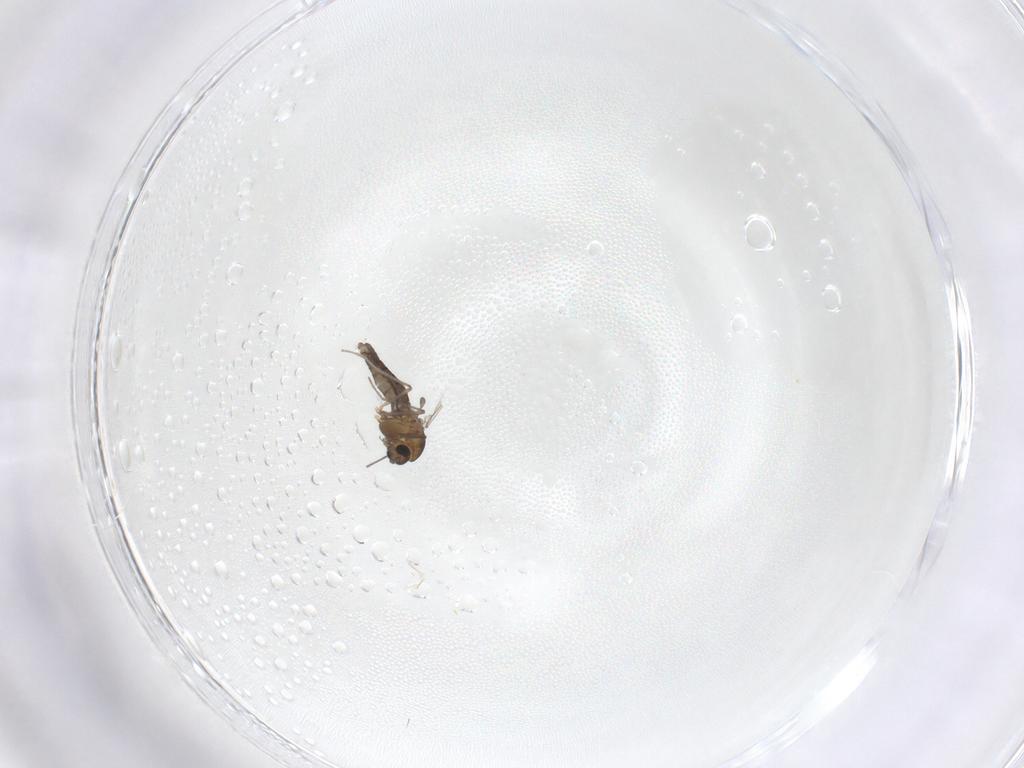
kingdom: Animalia
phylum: Arthropoda
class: Insecta
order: Diptera
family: Chironomidae
